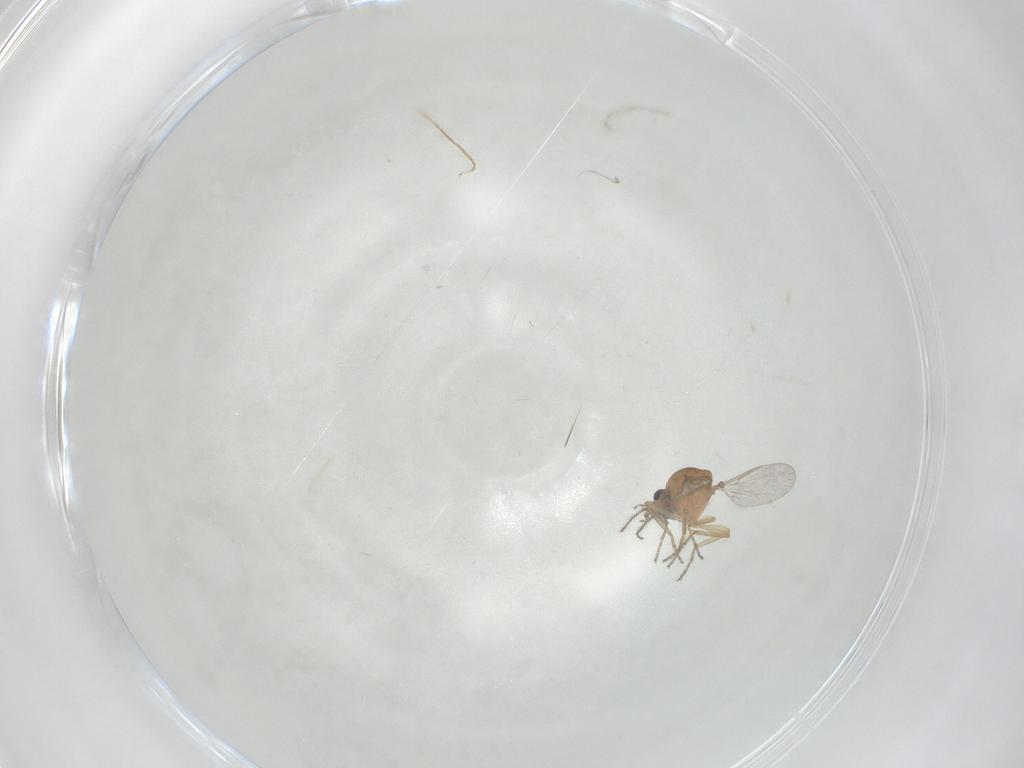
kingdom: Animalia
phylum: Arthropoda
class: Insecta
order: Diptera
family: Ceratopogonidae
